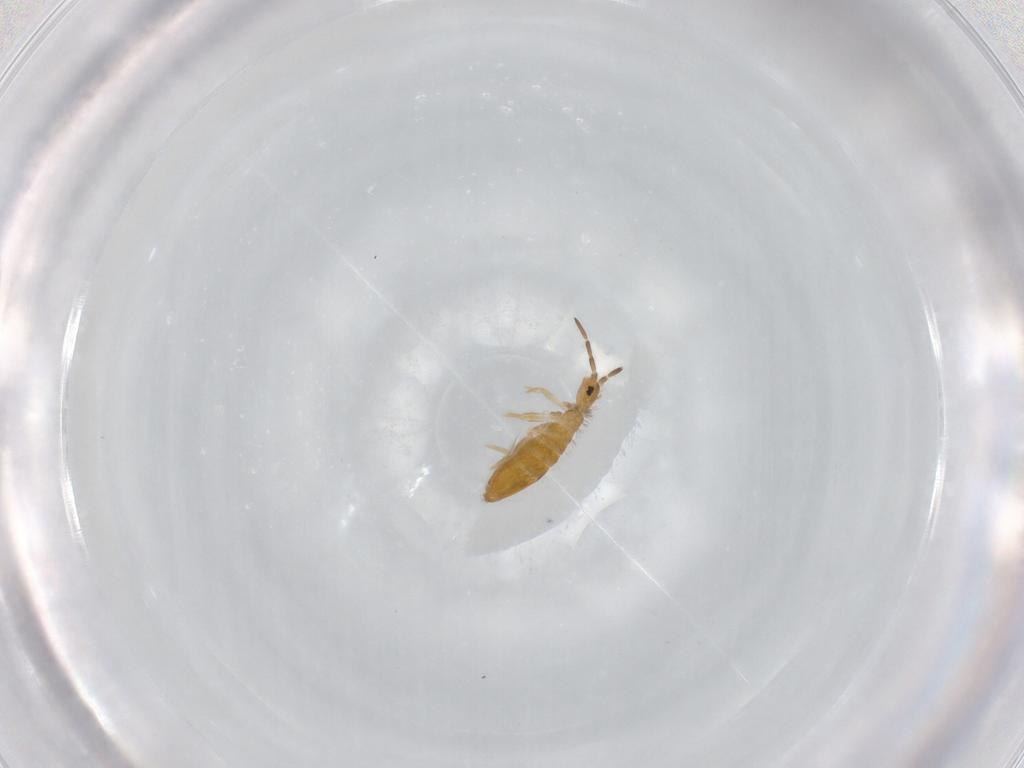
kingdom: Animalia
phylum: Arthropoda
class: Collembola
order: Entomobryomorpha
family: Entomobryidae
